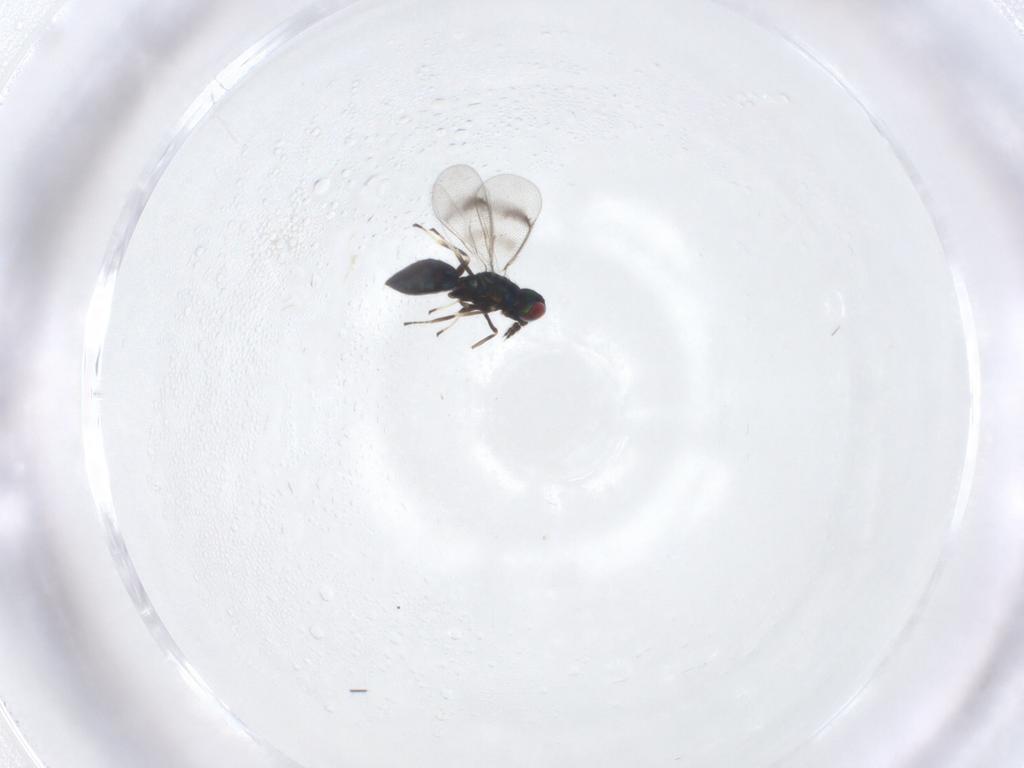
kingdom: Animalia
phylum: Arthropoda
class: Insecta
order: Hymenoptera
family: Eulophidae
